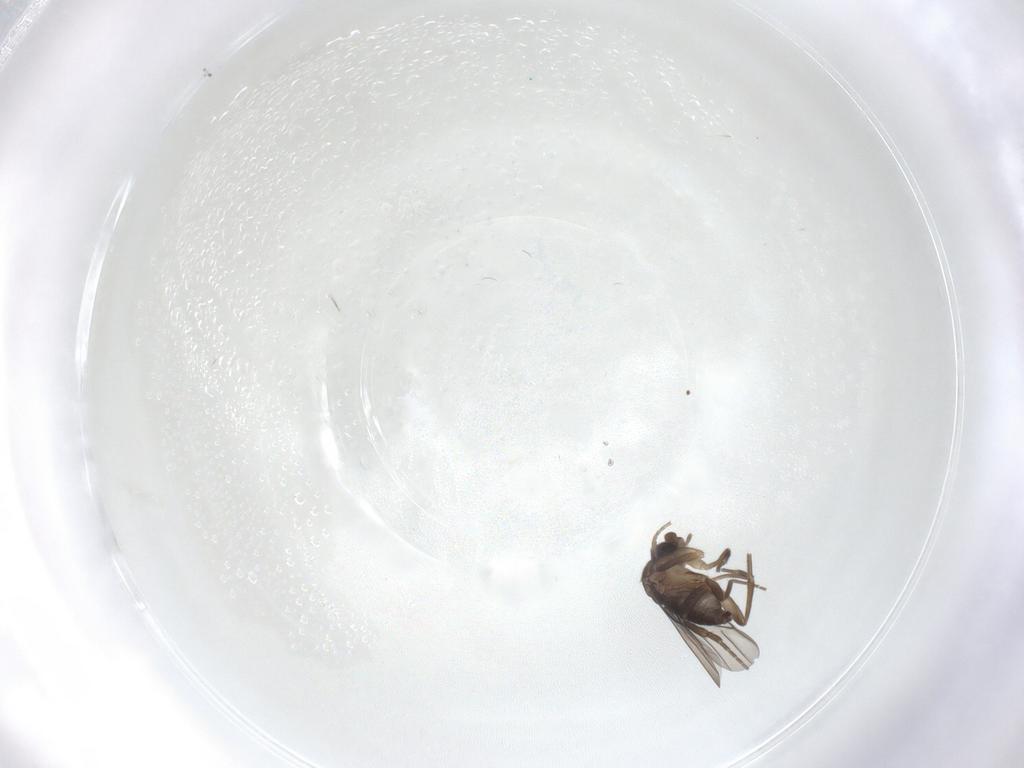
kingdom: Animalia
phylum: Arthropoda
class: Insecta
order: Diptera
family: Phoridae
